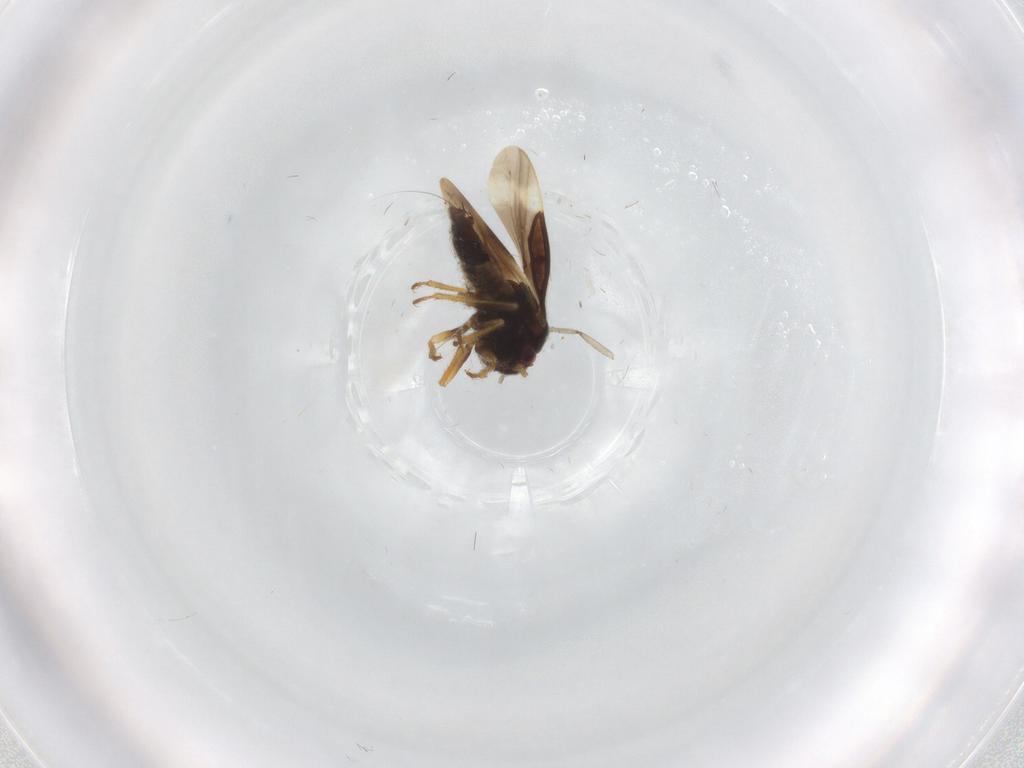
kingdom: Animalia
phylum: Arthropoda
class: Insecta
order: Hemiptera
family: Schizopteridae
